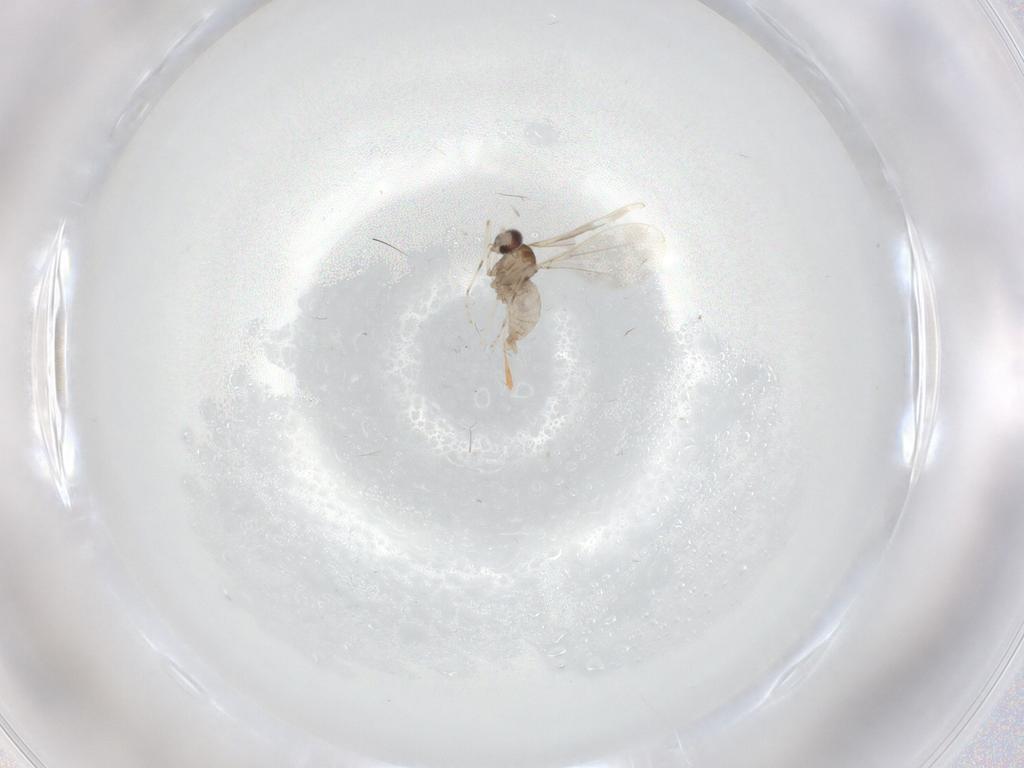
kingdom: Animalia
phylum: Arthropoda
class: Insecta
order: Diptera
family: Cecidomyiidae
